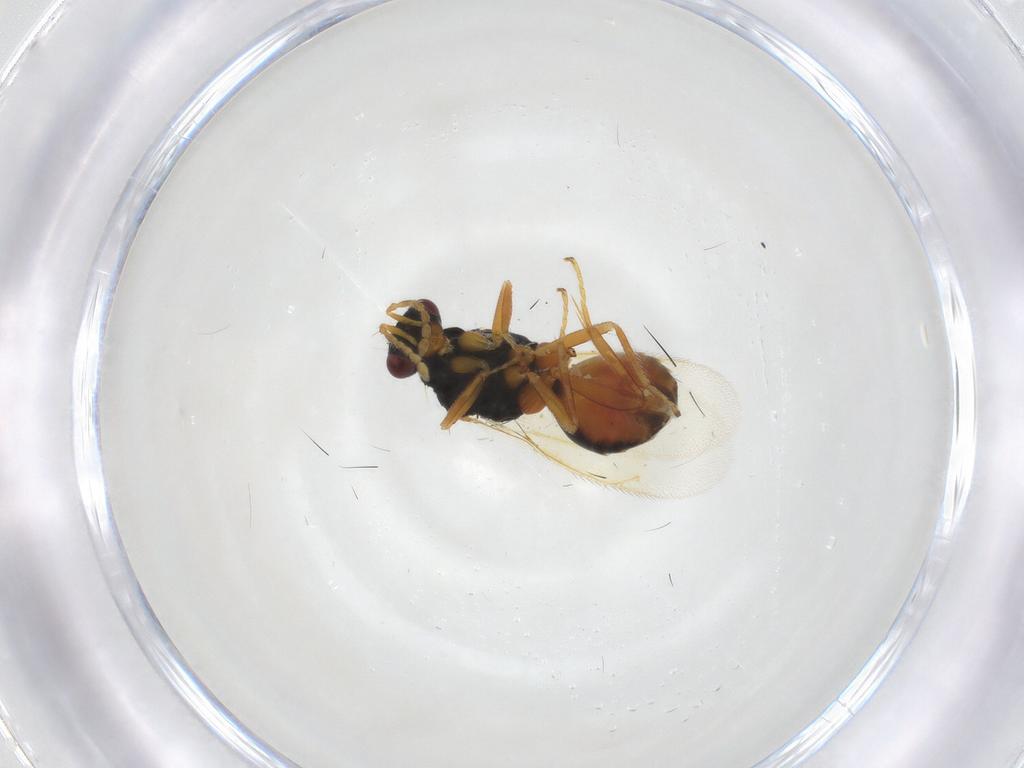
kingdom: Animalia
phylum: Arthropoda
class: Insecta
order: Hymenoptera
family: Eulophidae
